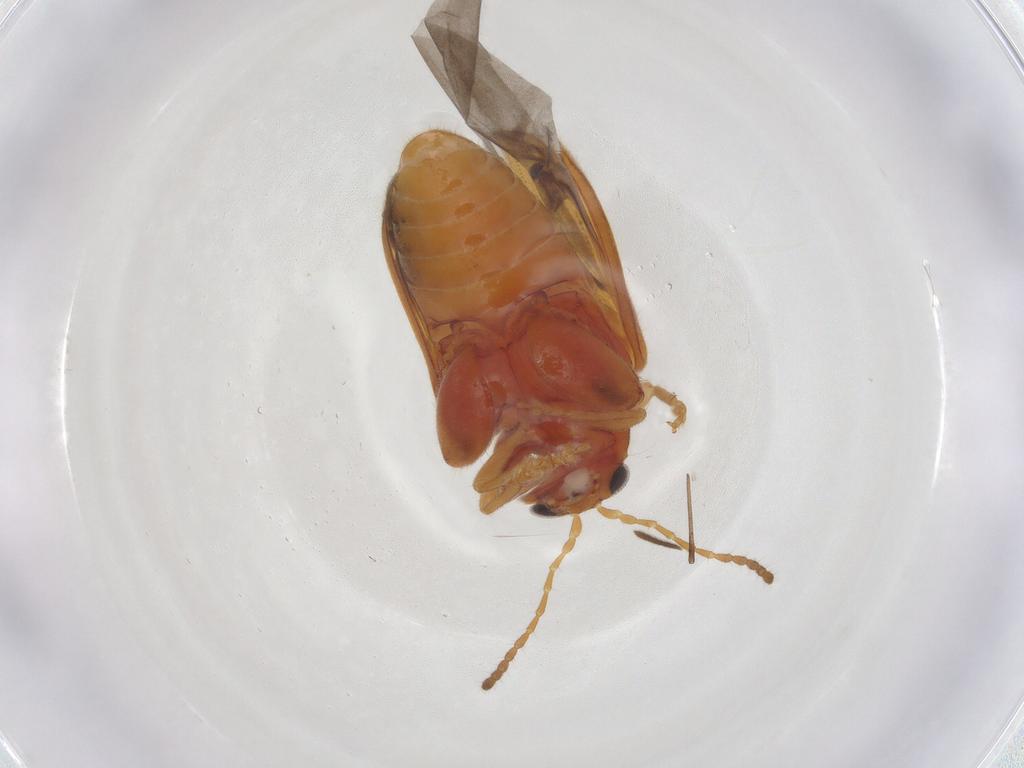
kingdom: Animalia
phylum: Arthropoda
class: Insecta
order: Coleoptera
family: Chrysomelidae
